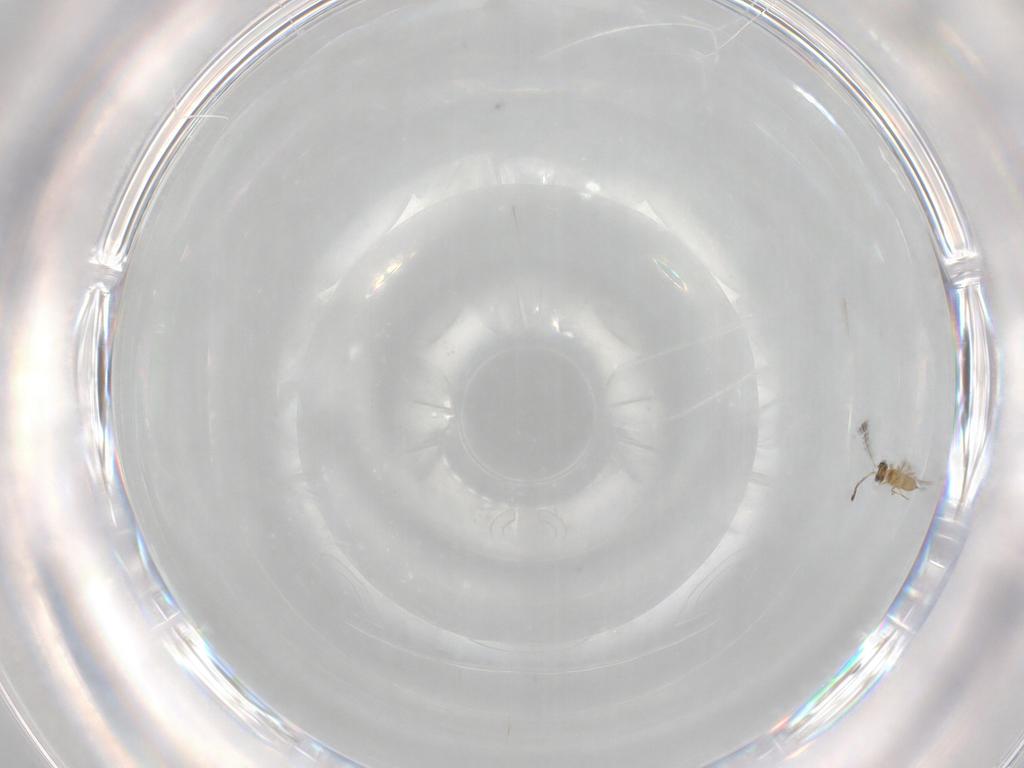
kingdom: Animalia
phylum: Arthropoda
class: Insecta
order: Hymenoptera
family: Mymaridae
